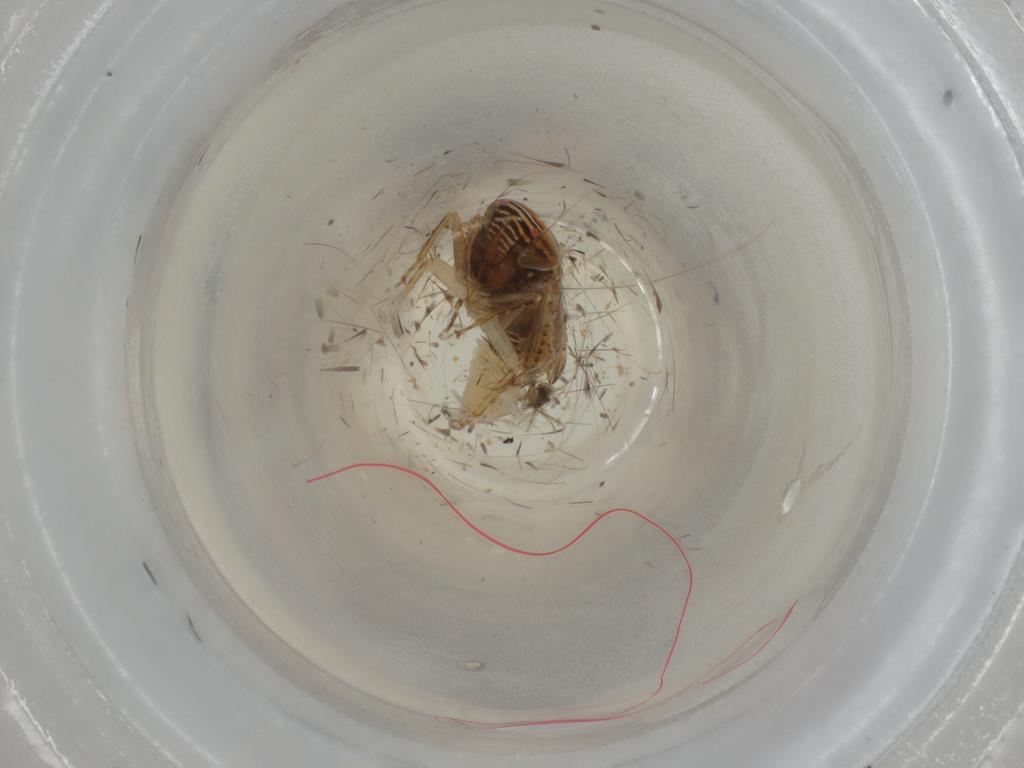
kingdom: Animalia
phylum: Arthropoda
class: Insecta
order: Hemiptera
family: Cicadellidae
